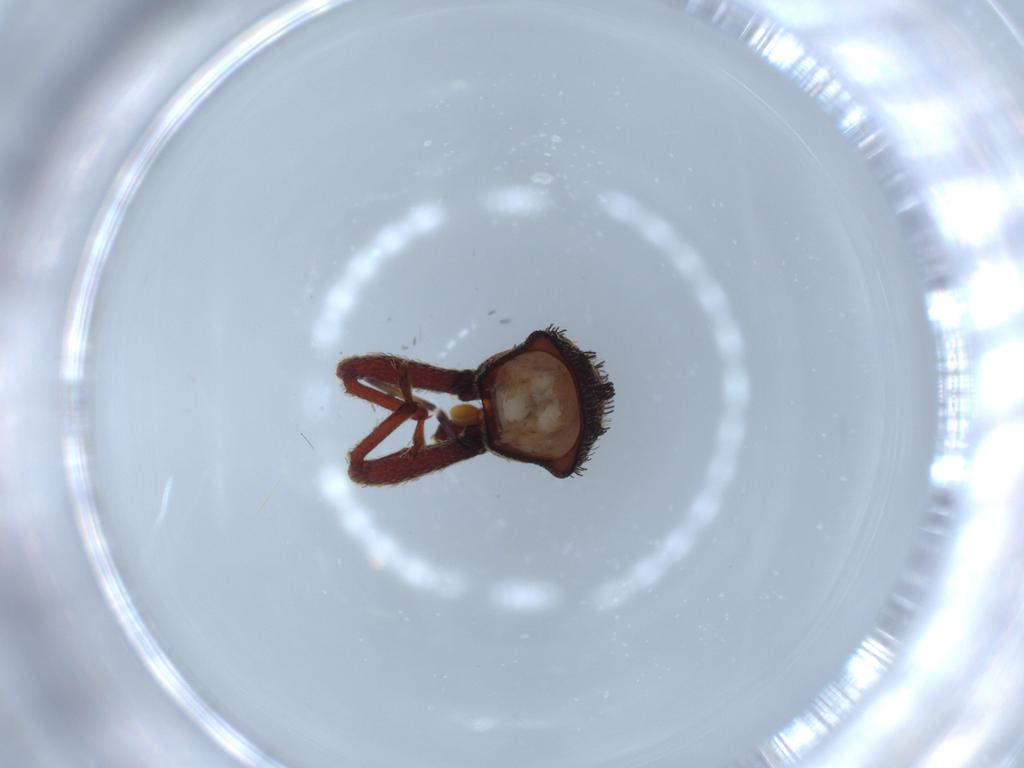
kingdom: Animalia
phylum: Arthropoda
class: Insecta
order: Coleoptera
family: Curculionidae
